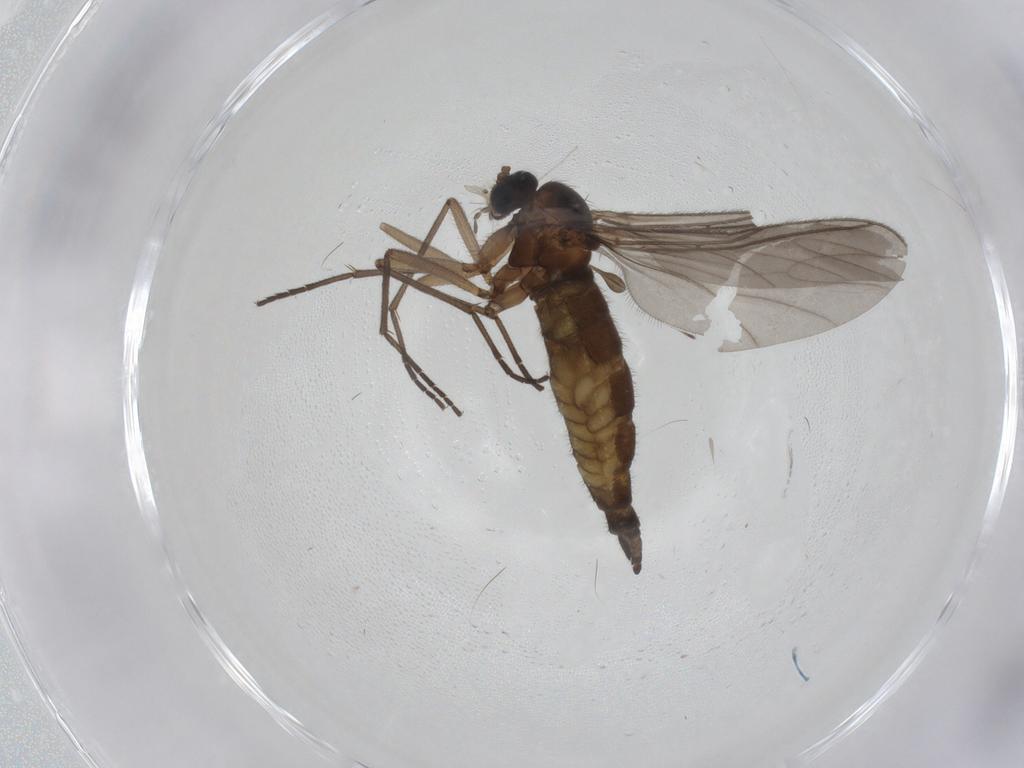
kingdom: Animalia
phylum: Arthropoda
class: Insecta
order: Diptera
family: Sciaridae
